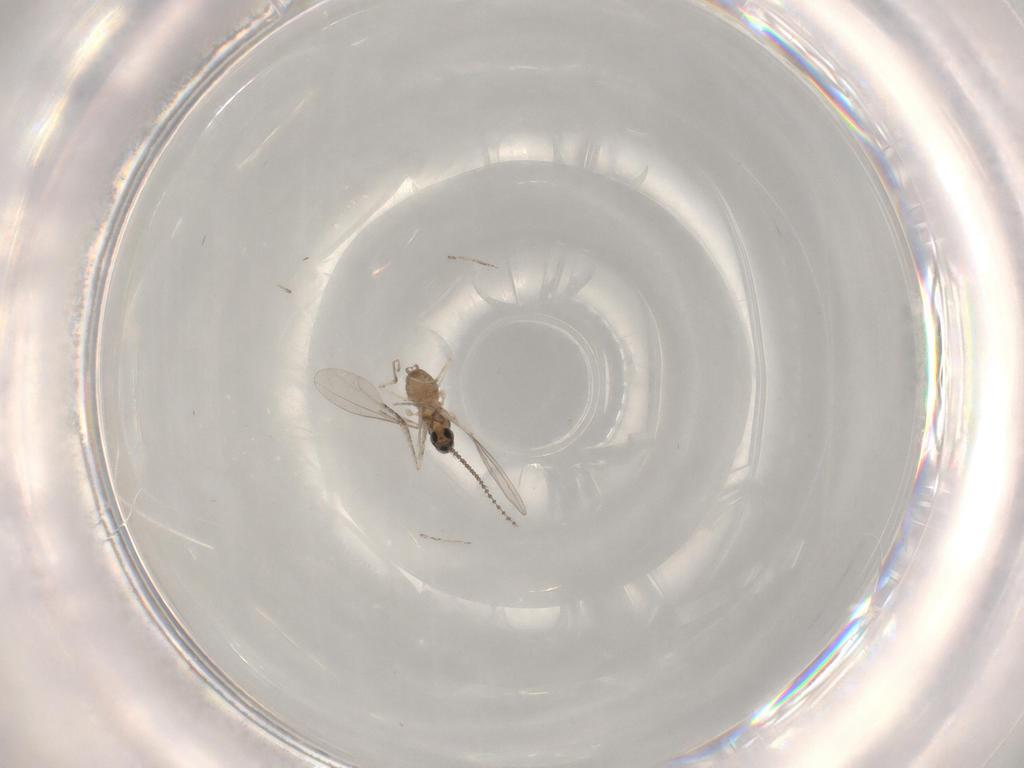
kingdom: Animalia
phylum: Arthropoda
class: Insecta
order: Diptera
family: Cecidomyiidae
